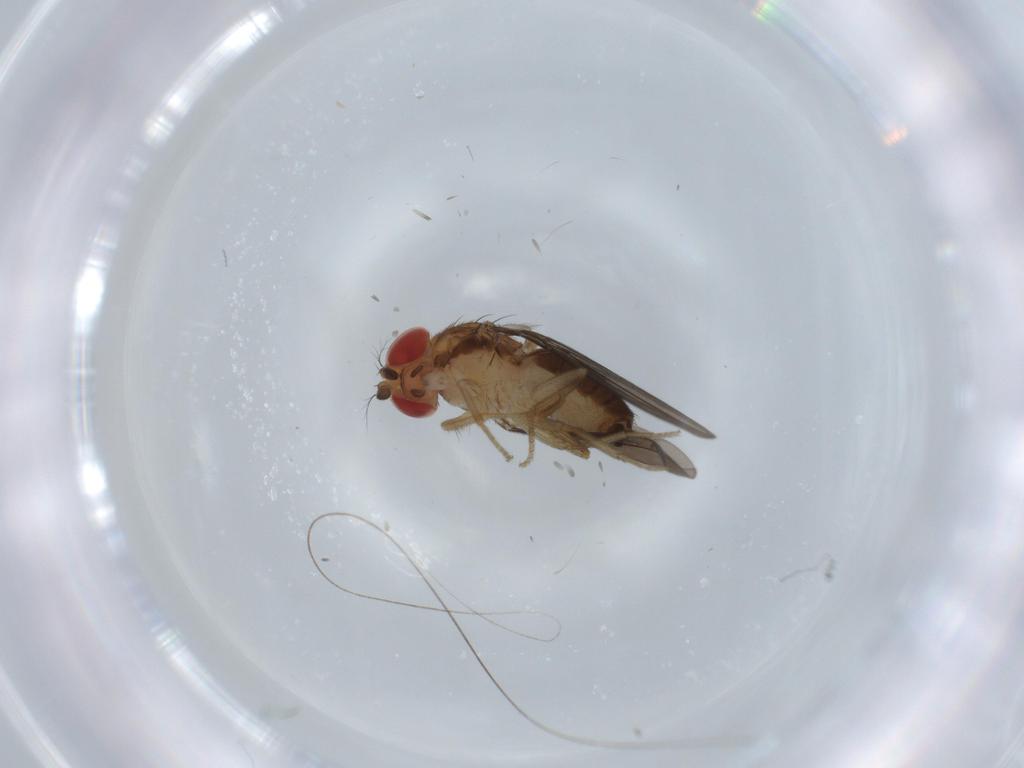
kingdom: Animalia
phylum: Arthropoda
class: Insecta
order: Diptera
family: Drosophilidae
